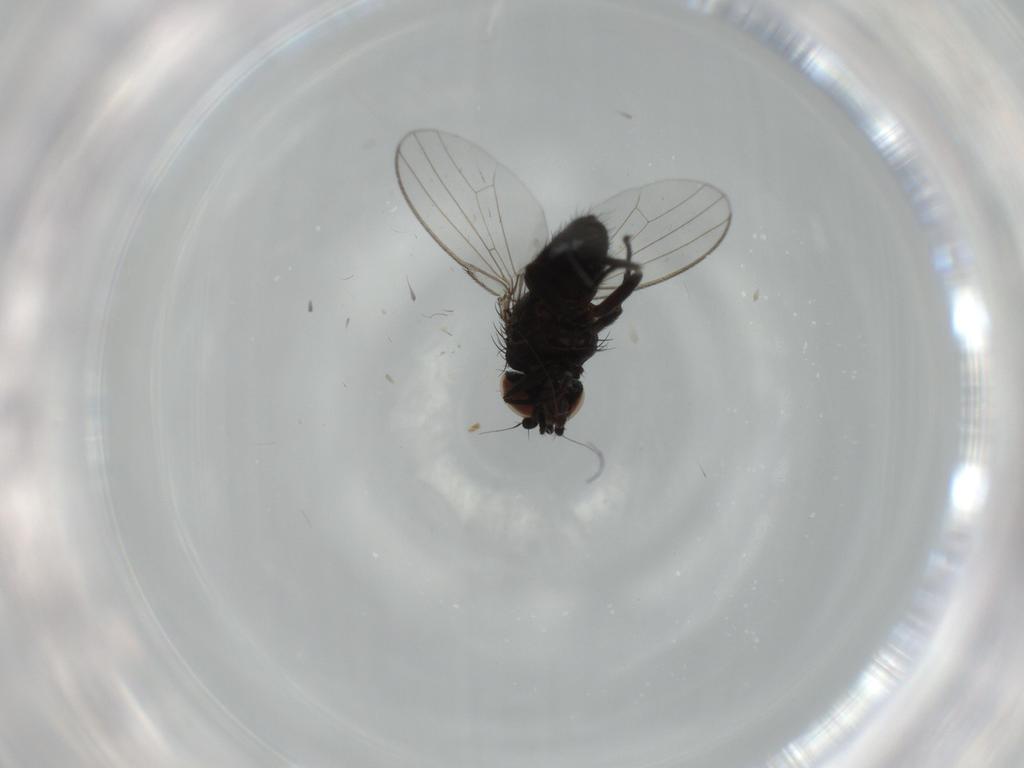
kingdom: Animalia
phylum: Arthropoda
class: Insecta
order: Diptera
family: Milichiidae
